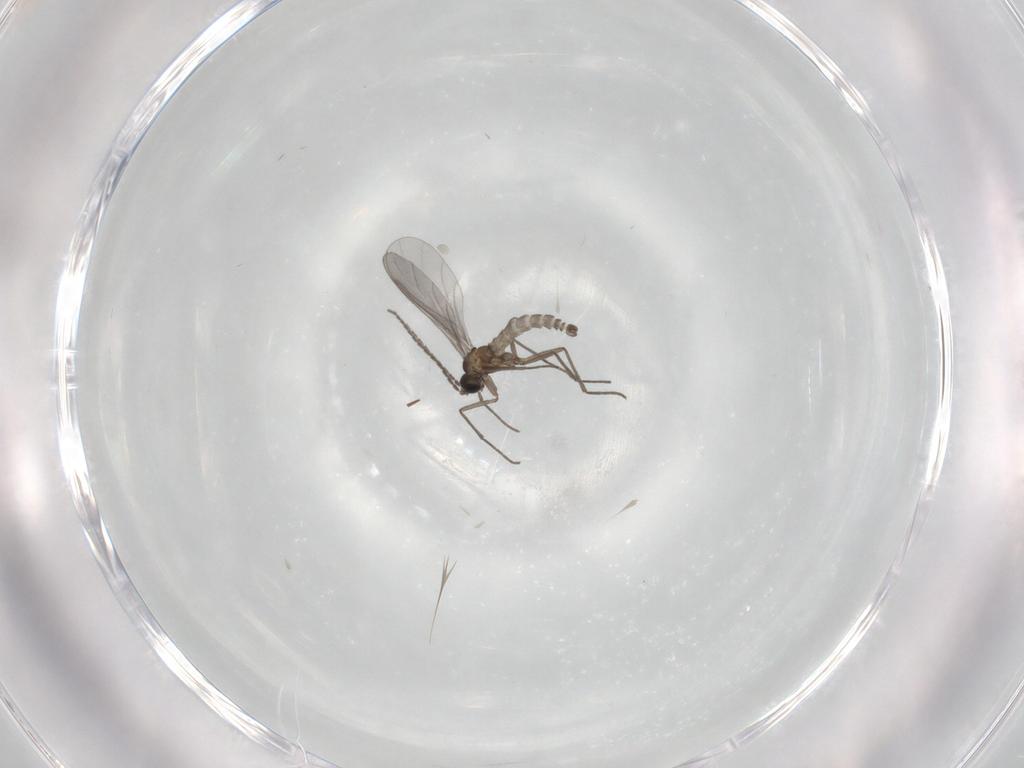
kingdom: Animalia
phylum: Arthropoda
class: Insecta
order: Diptera
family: Sciaridae
